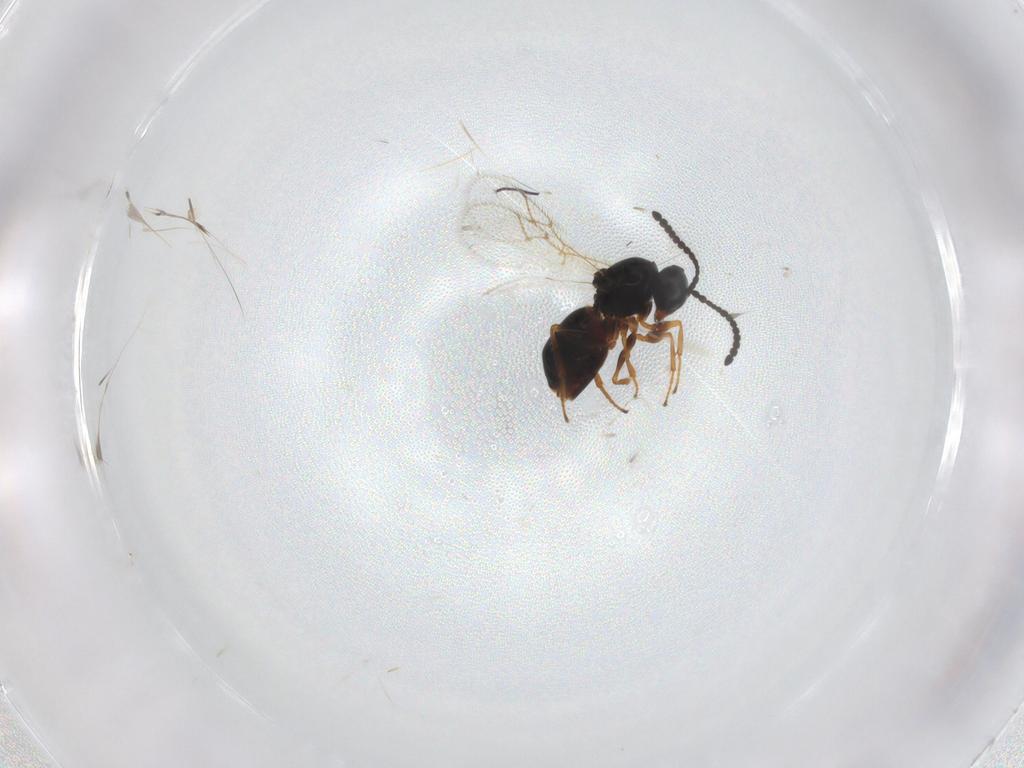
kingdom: Animalia
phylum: Arthropoda
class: Insecta
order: Hymenoptera
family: Figitidae
